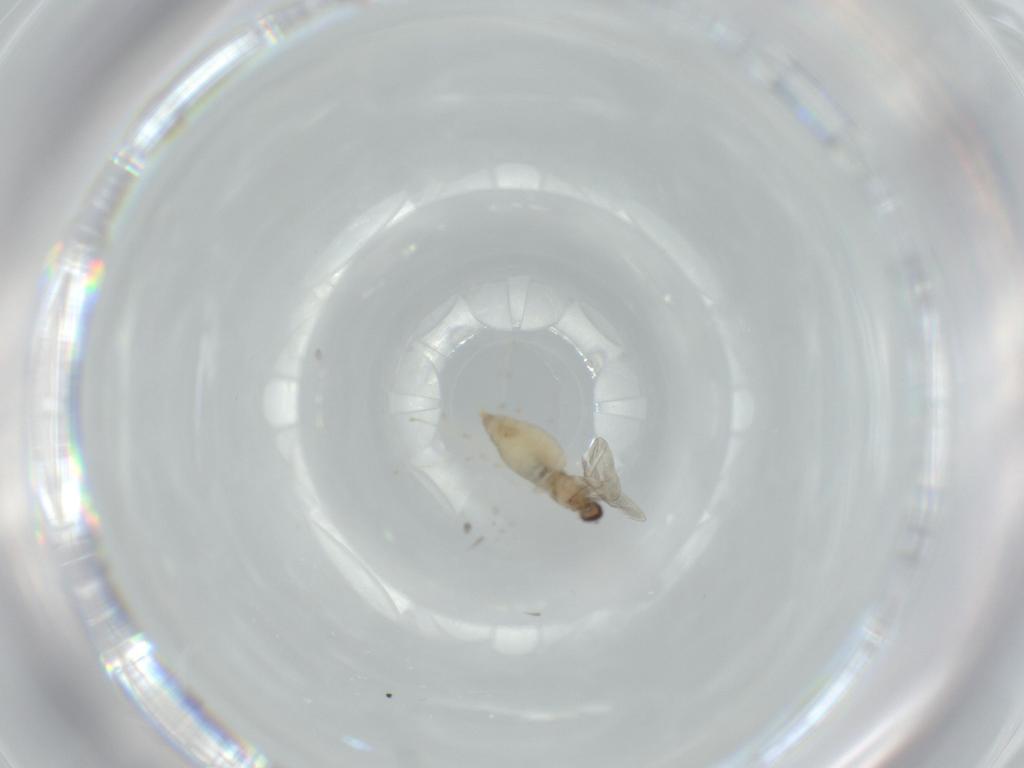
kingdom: Animalia
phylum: Arthropoda
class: Insecta
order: Diptera
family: Cecidomyiidae
